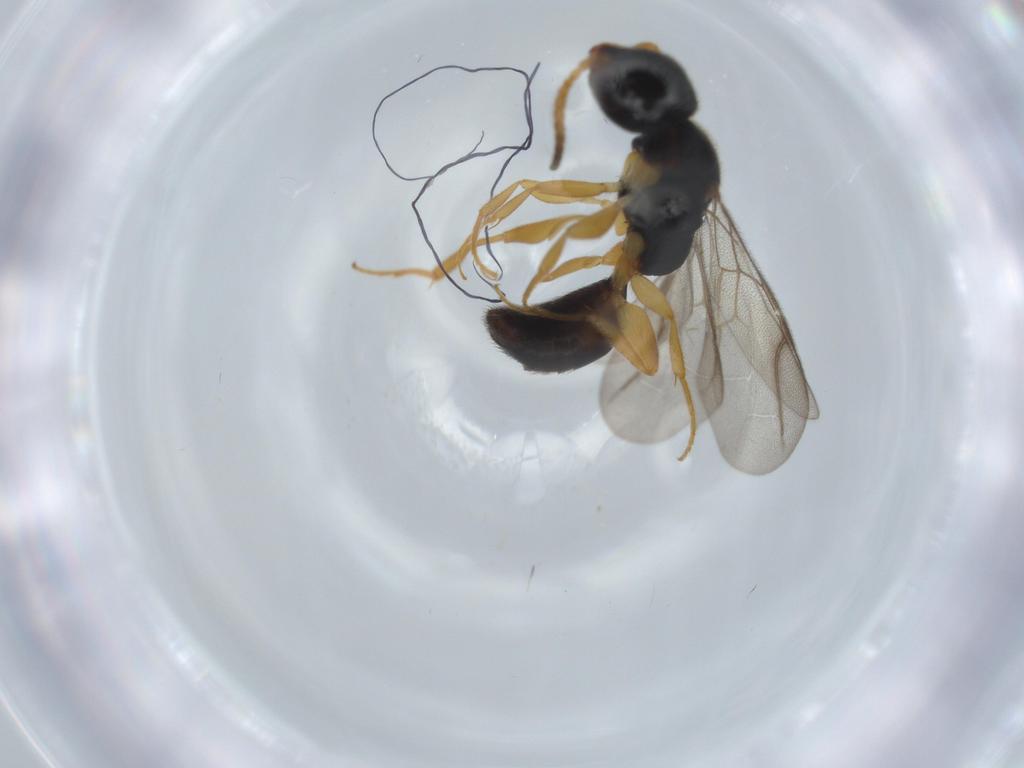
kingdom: Animalia
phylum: Arthropoda
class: Insecta
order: Hymenoptera
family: Bethylidae
